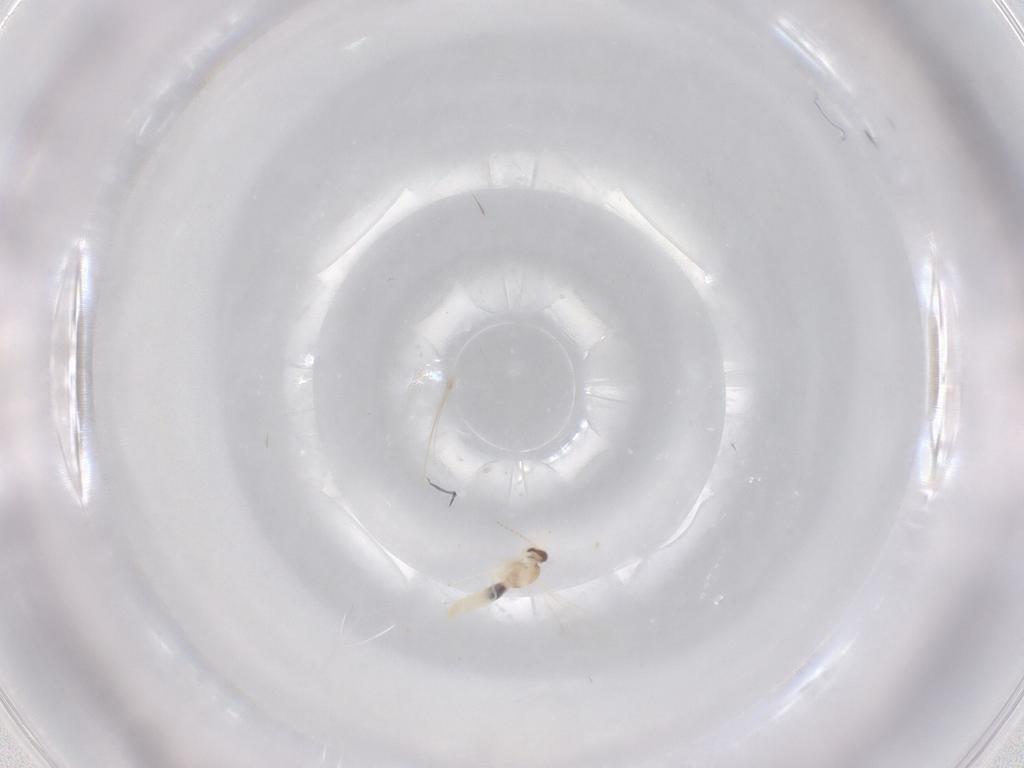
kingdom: Animalia
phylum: Arthropoda
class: Insecta
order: Diptera
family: Cecidomyiidae
